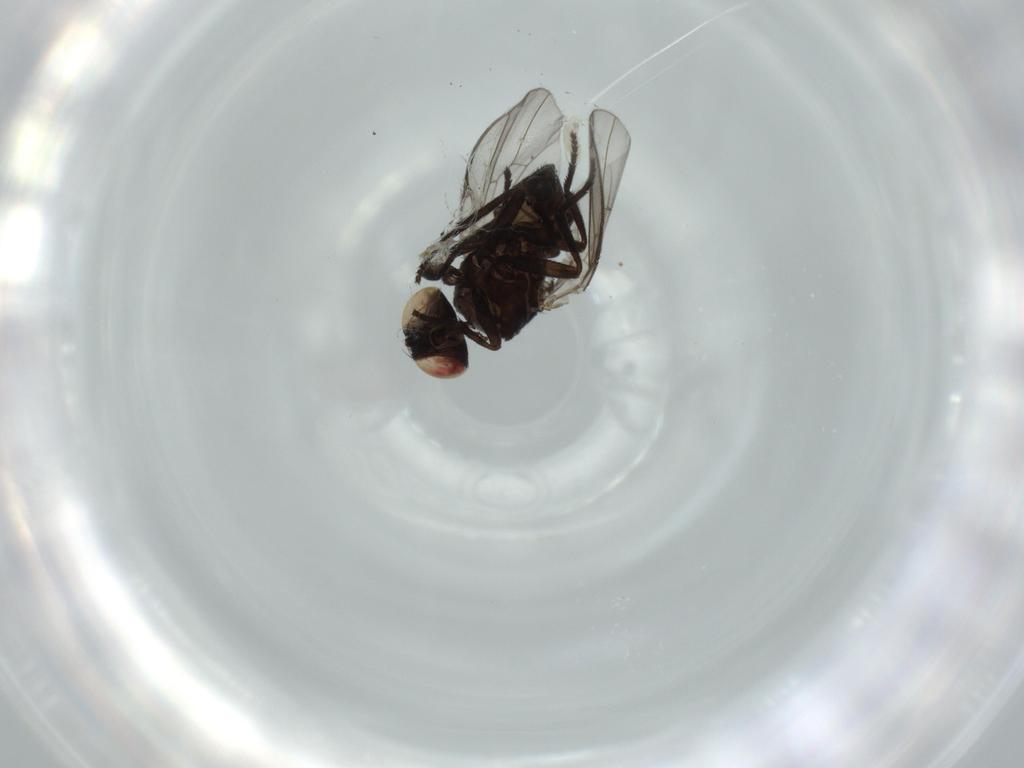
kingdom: Animalia
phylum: Arthropoda
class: Insecta
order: Diptera
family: Agromyzidae
